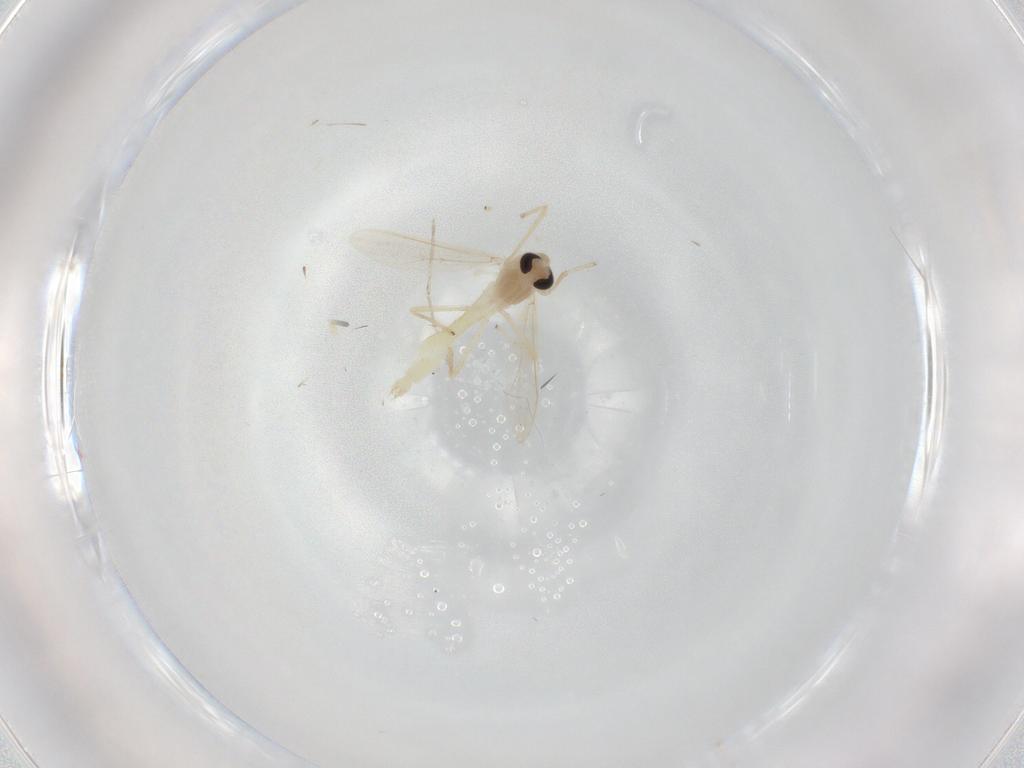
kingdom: Animalia
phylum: Arthropoda
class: Insecta
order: Diptera
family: Chironomidae
